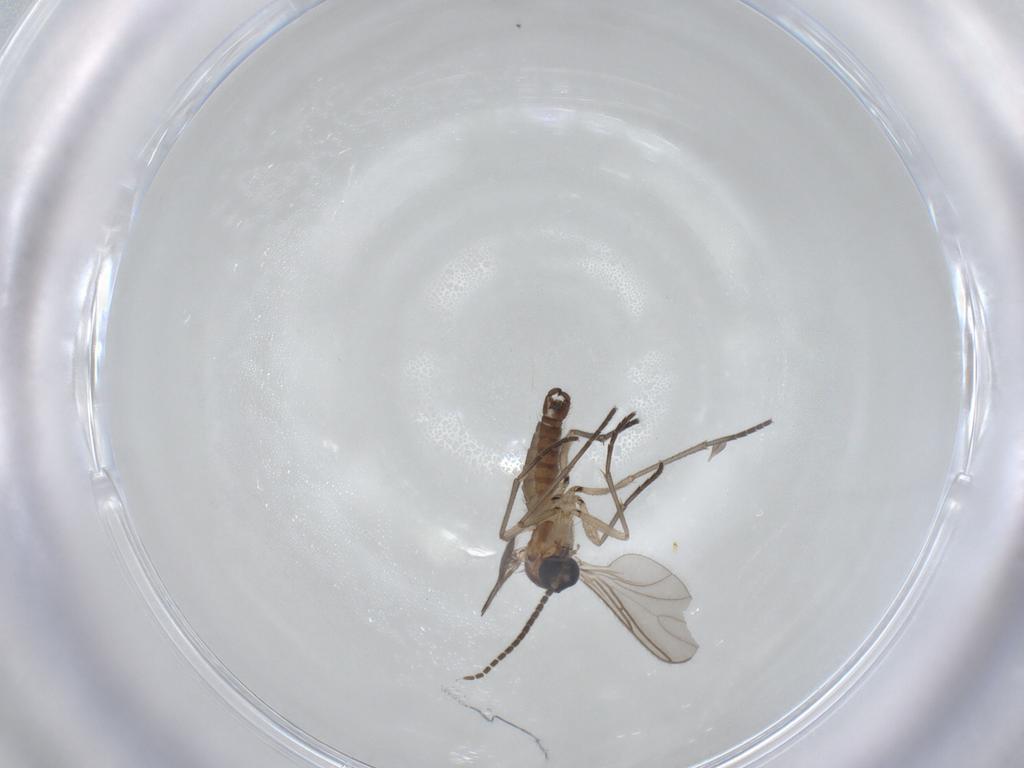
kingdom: Animalia
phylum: Arthropoda
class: Insecta
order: Diptera
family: Sciaridae
